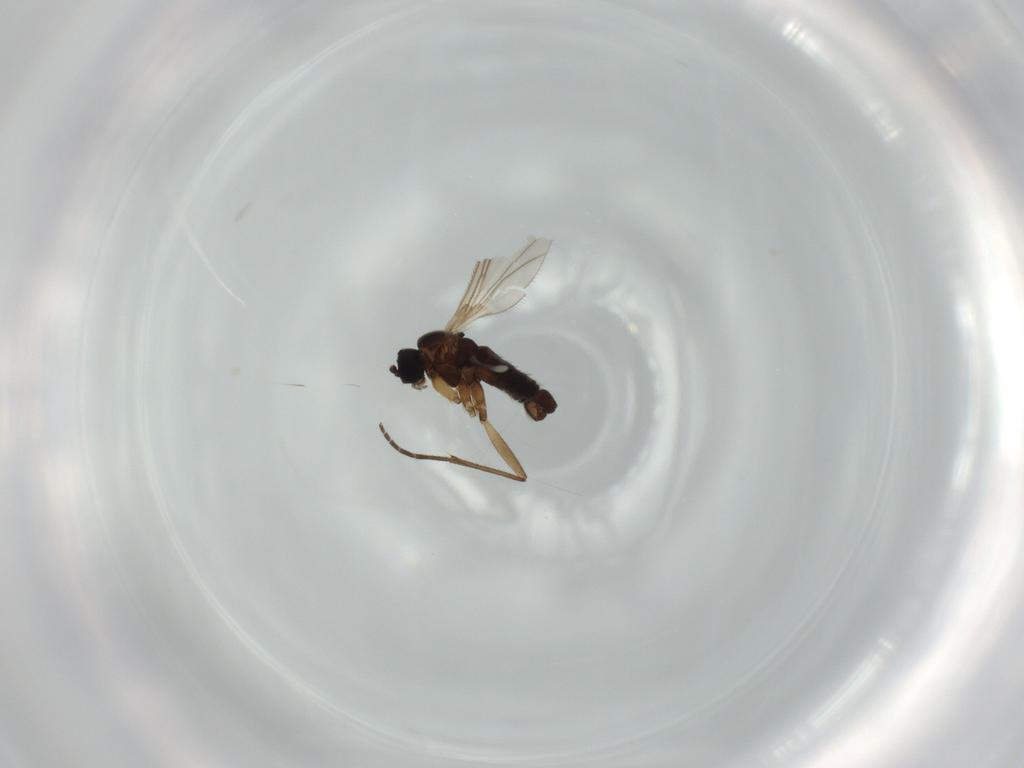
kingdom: Animalia
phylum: Arthropoda
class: Insecta
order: Diptera
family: Sciaridae
